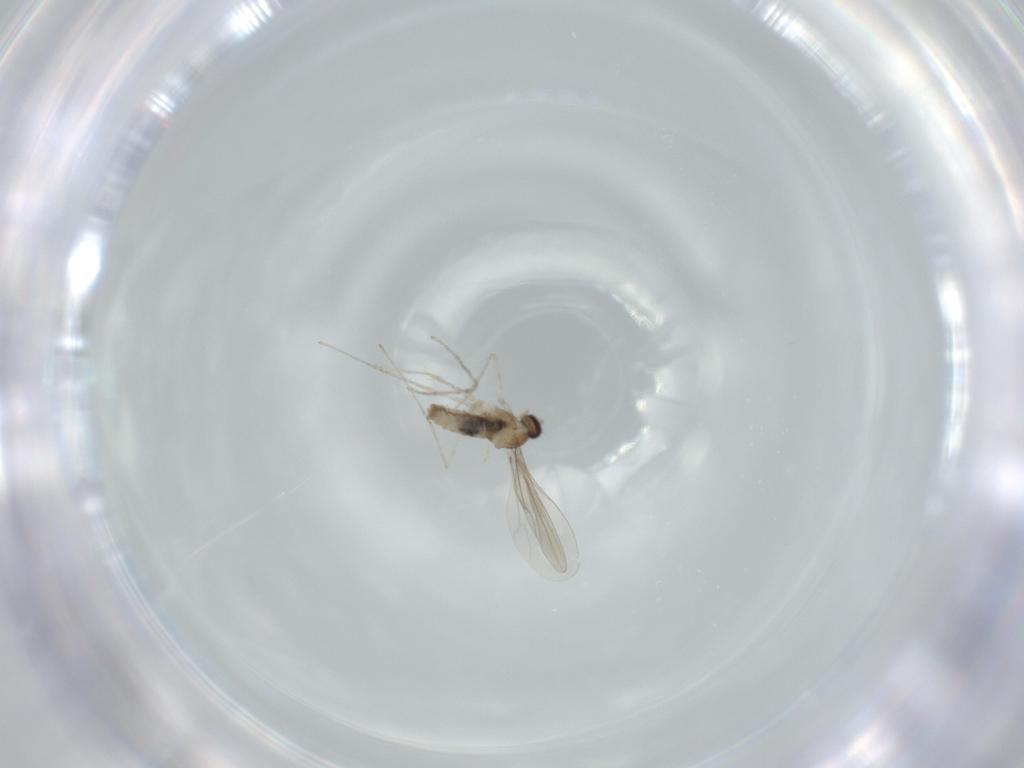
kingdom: Animalia
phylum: Arthropoda
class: Insecta
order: Diptera
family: Cecidomyiidae
